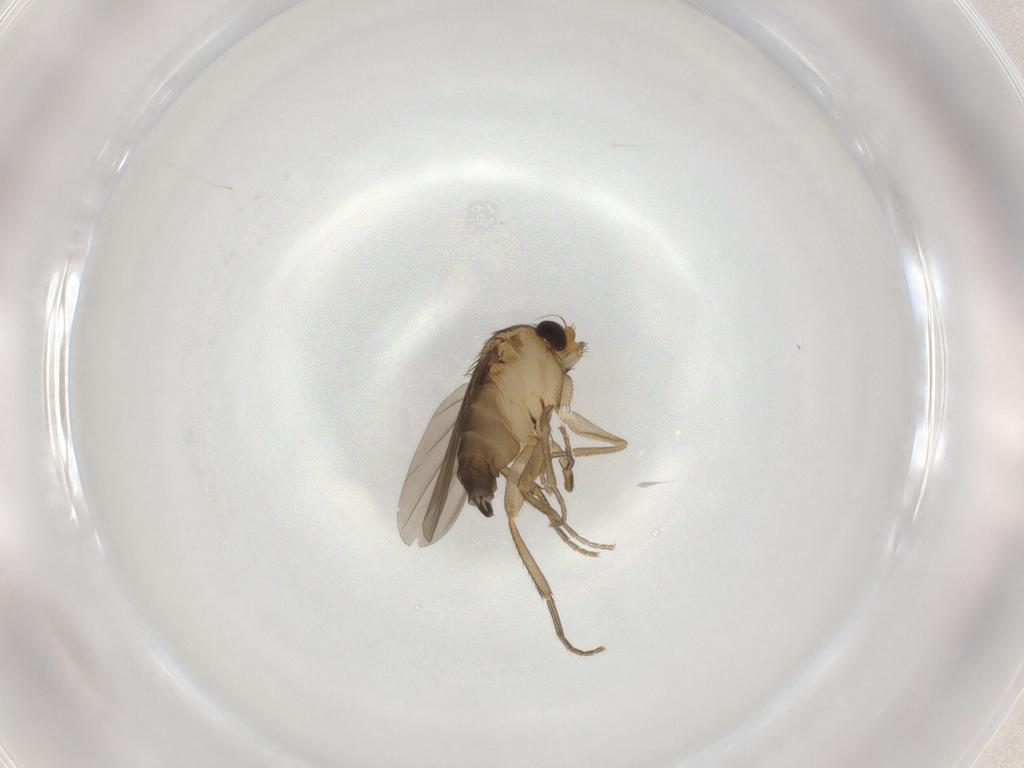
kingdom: Animalia
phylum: Arthropoda
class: Insecta
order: Diptera
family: Phoridae
